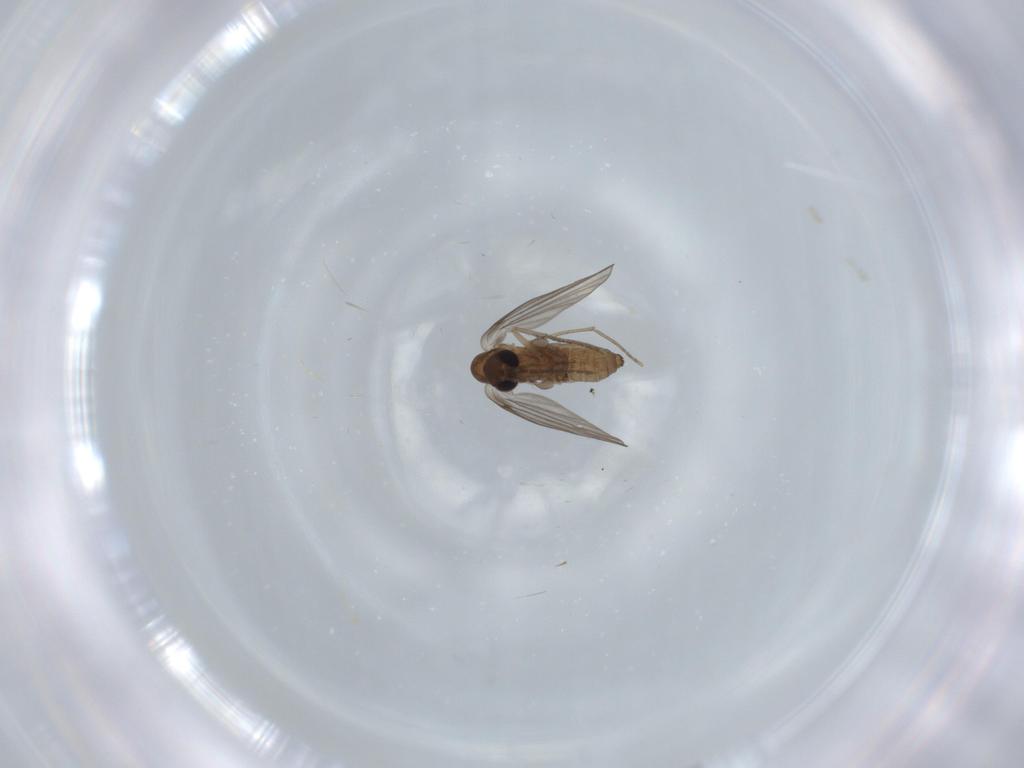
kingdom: Animalia
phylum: Arthropoda
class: Insecta
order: Diptera
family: Psychodidae
